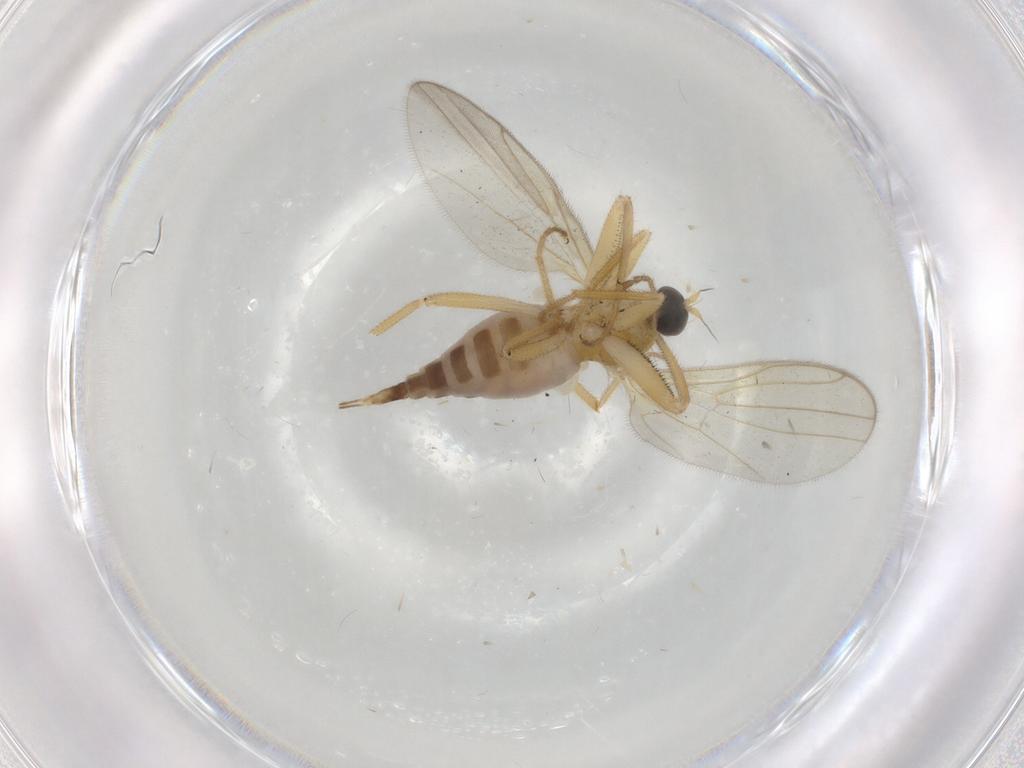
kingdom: Animalia
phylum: Arthropoda
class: Insecta
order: Diptera
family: Hybotidae
